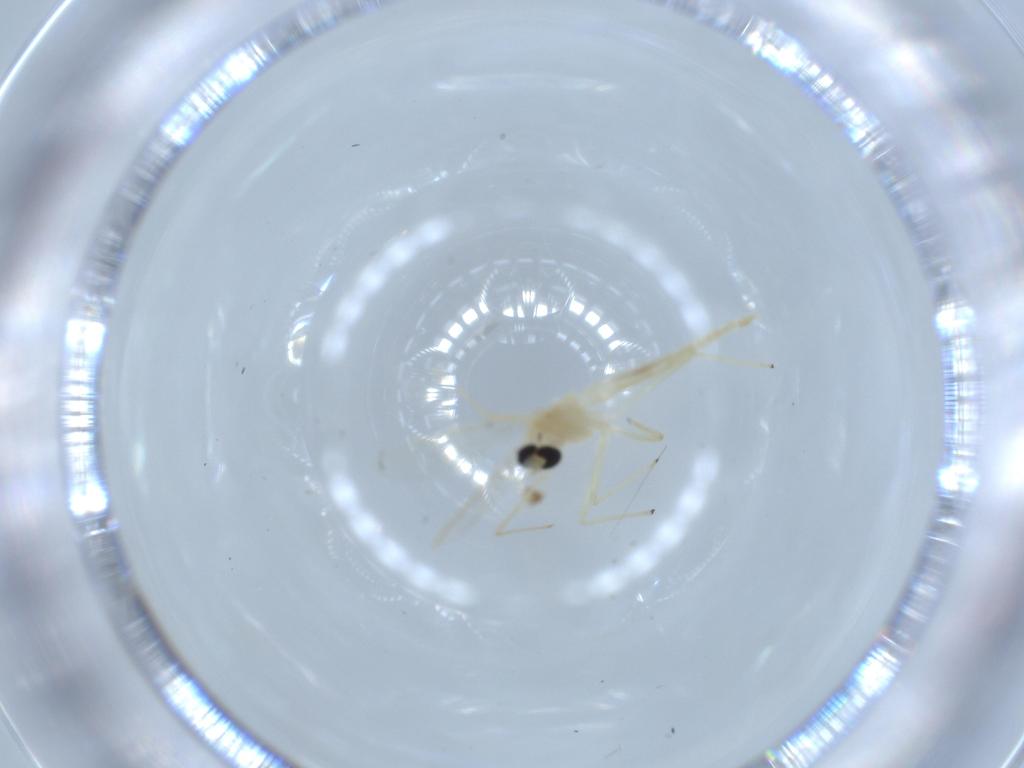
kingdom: Animalia
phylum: Arthropoda
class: Insecta
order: Diptera
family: Chironomidae
